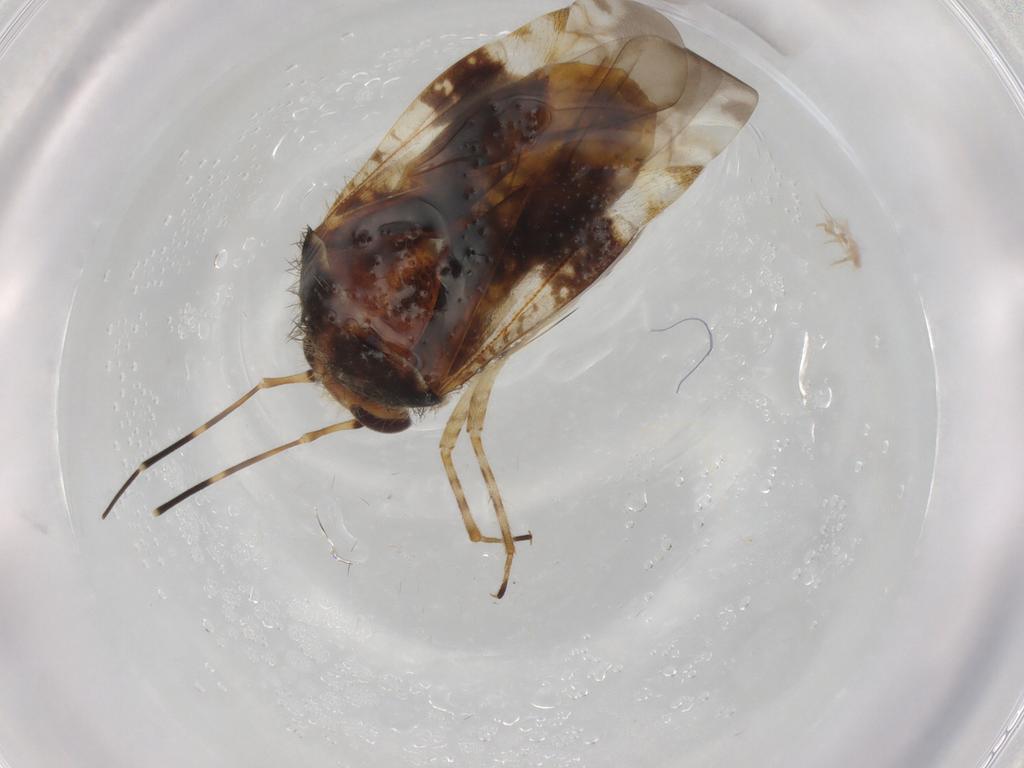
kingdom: Animalia
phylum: Arthropoda
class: Insecta
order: Hemiptera
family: Miridae
